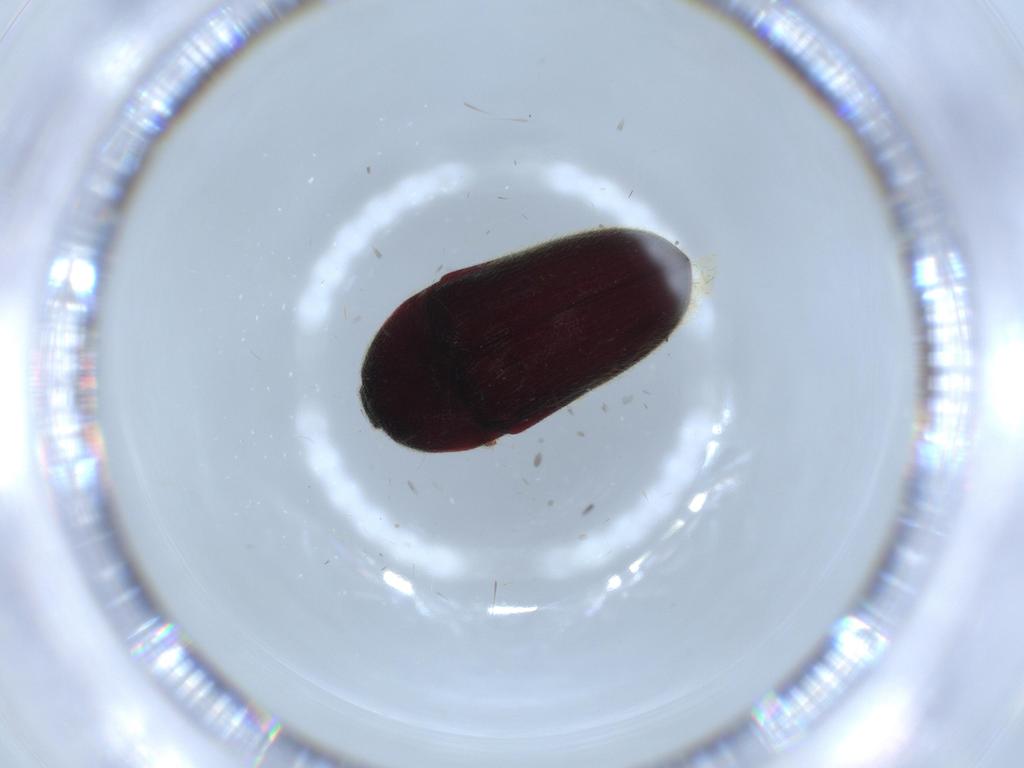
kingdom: Animalia
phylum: Arthropoda
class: Insecta
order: Coleoptera
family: Throscidae
